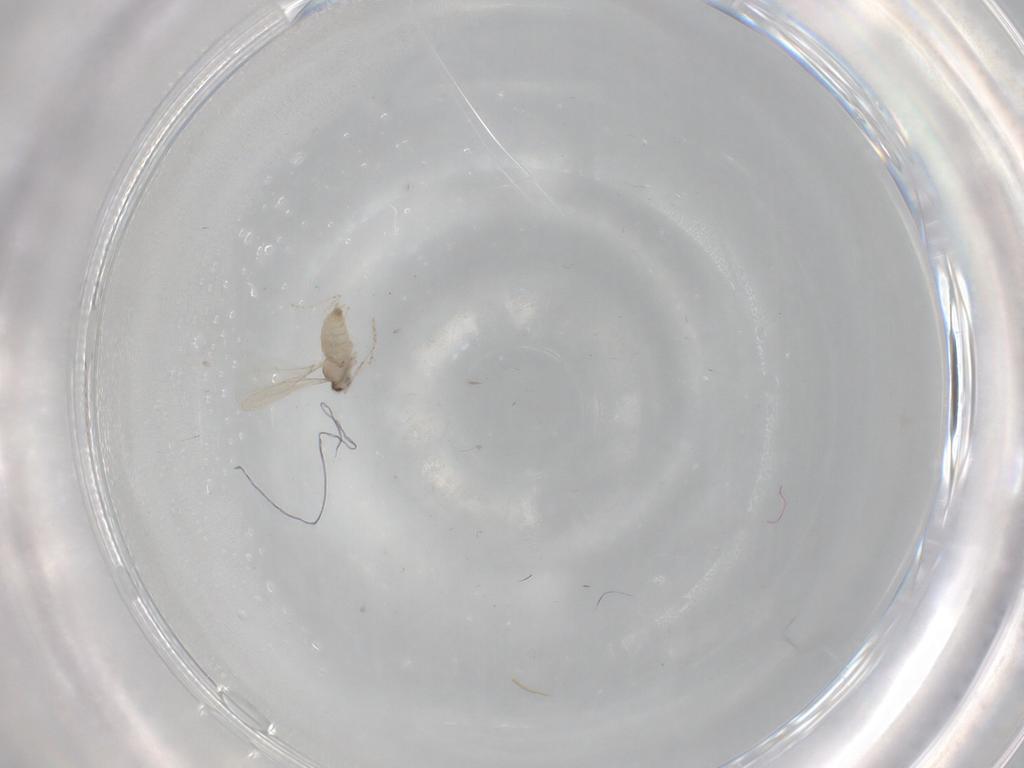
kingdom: Animalia
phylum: Arthropoda
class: Insecta
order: Diptera
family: Cecidomyiidae
